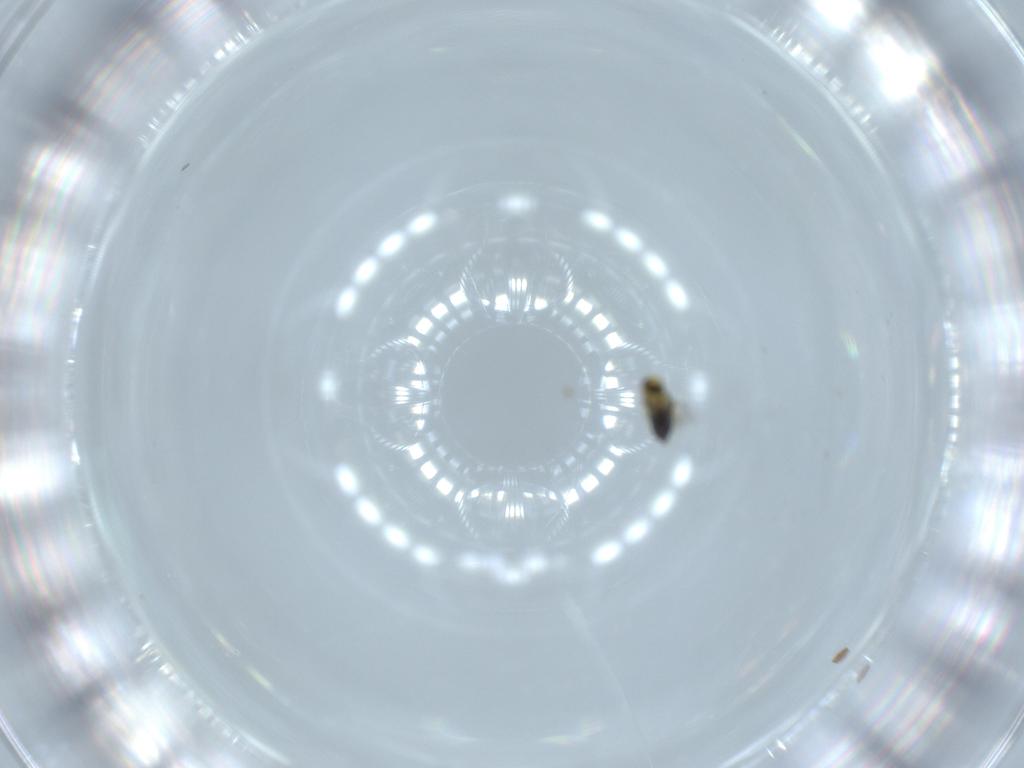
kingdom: Animalia
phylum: Arthropoda
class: Insecta
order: Hymenoptera
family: Signiphoridae
